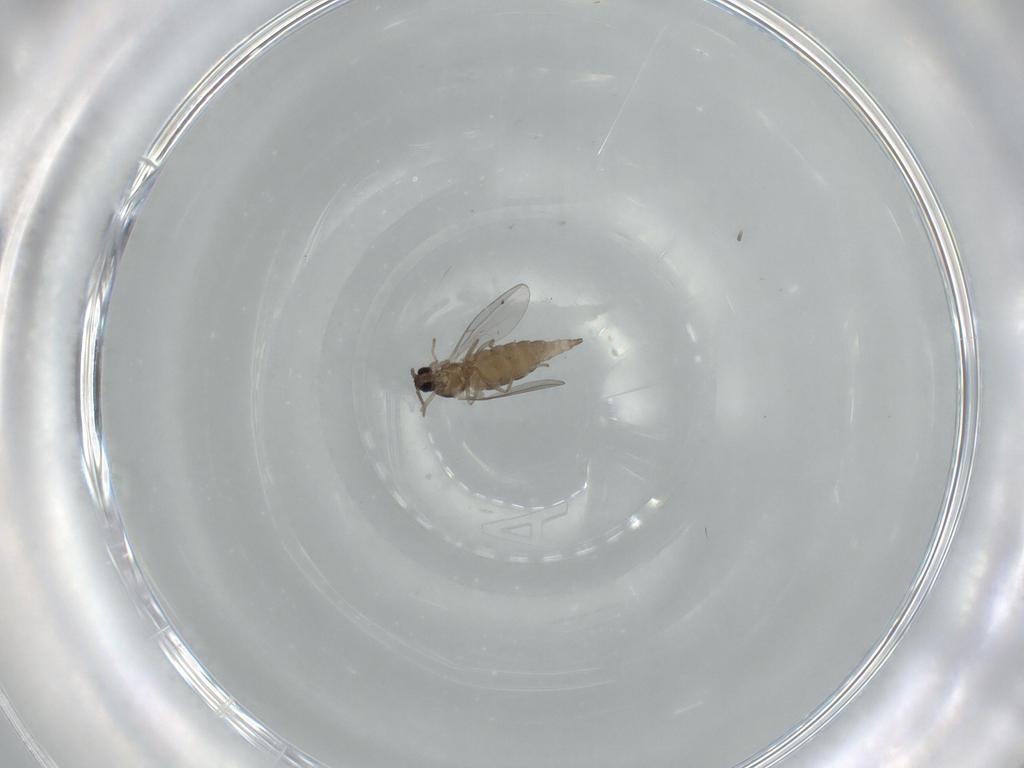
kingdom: Animalia
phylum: Arthropoda
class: Insecta
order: Diptera
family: Cecidomyiidae
